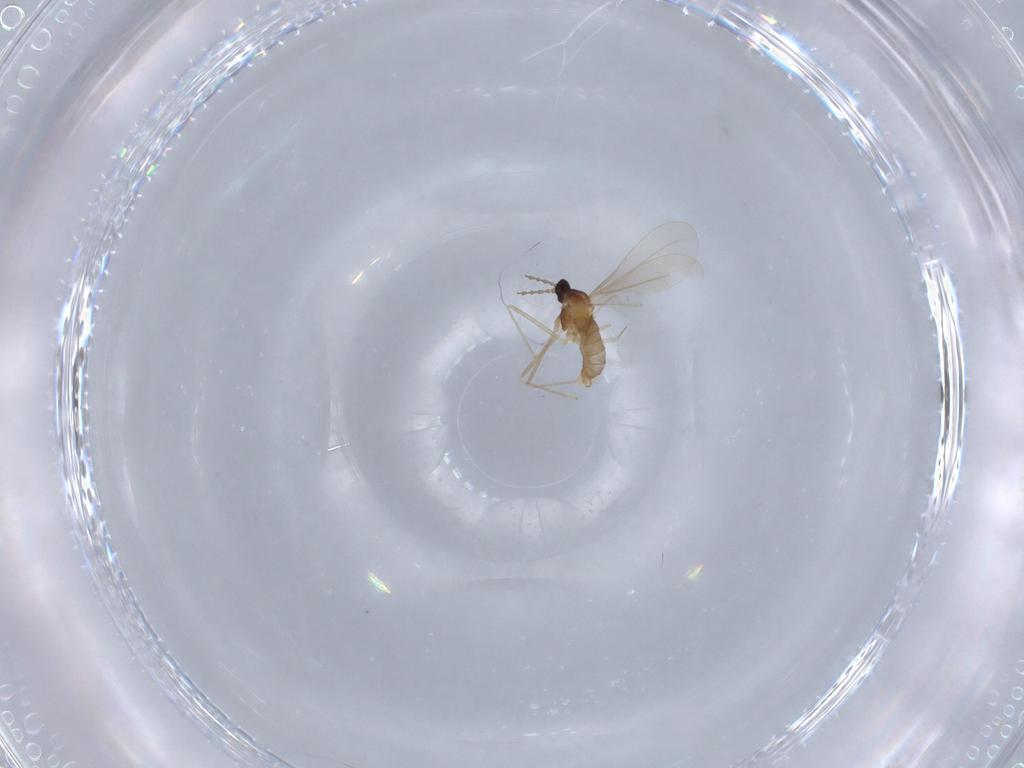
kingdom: Animalia
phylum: Arthropoda
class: Insecta
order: Diptera
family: Cecidomyiidae
